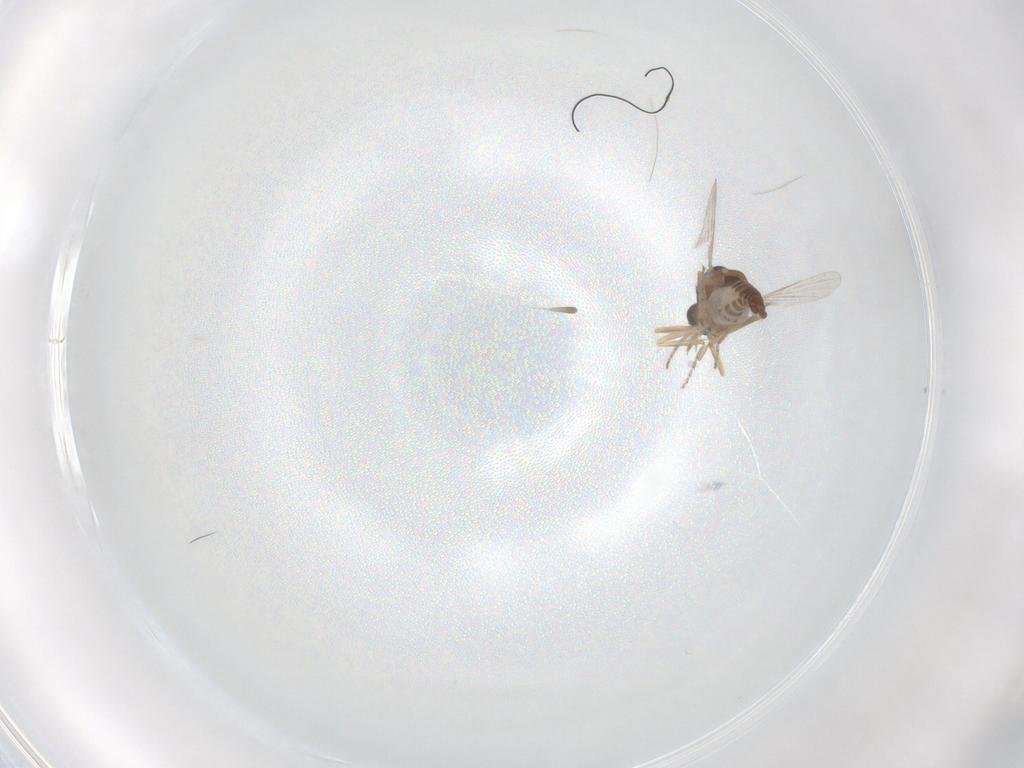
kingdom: Animalia
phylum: Arthropoda
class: Insecta
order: Diptera
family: Ceratopogonidae
